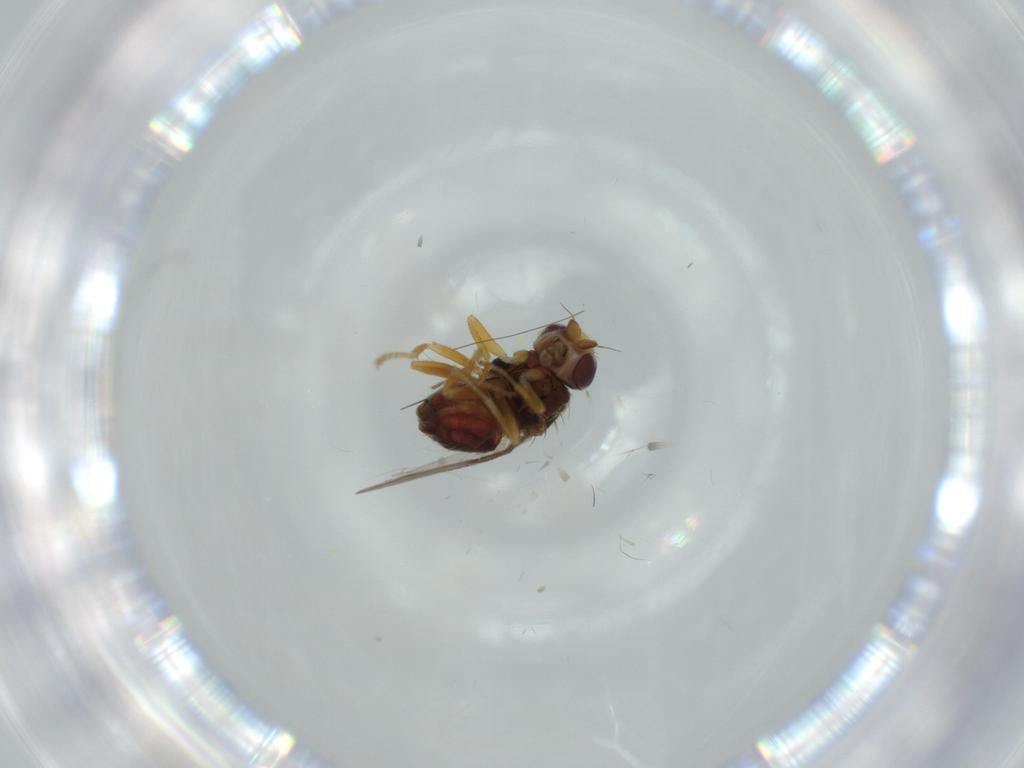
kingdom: Animalia
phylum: Arthropoda
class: Insecta
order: Diptera
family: Chloropidae
